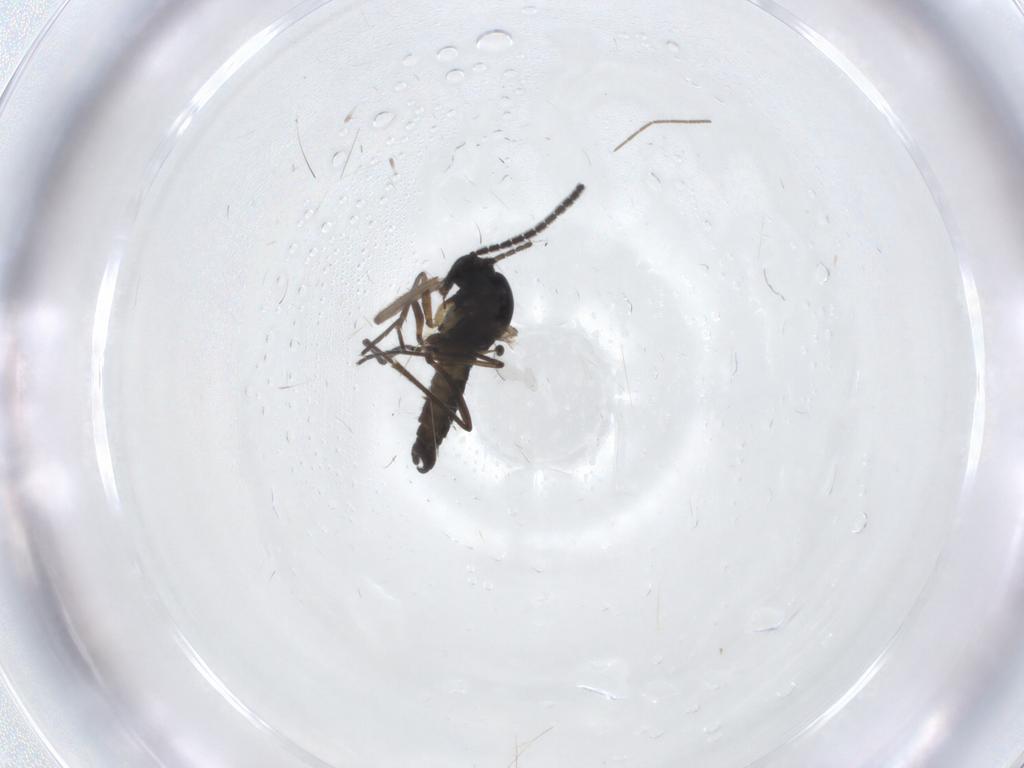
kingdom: Animalia
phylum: Arthropoda
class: Insecta
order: Diptera
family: Sciaridae
